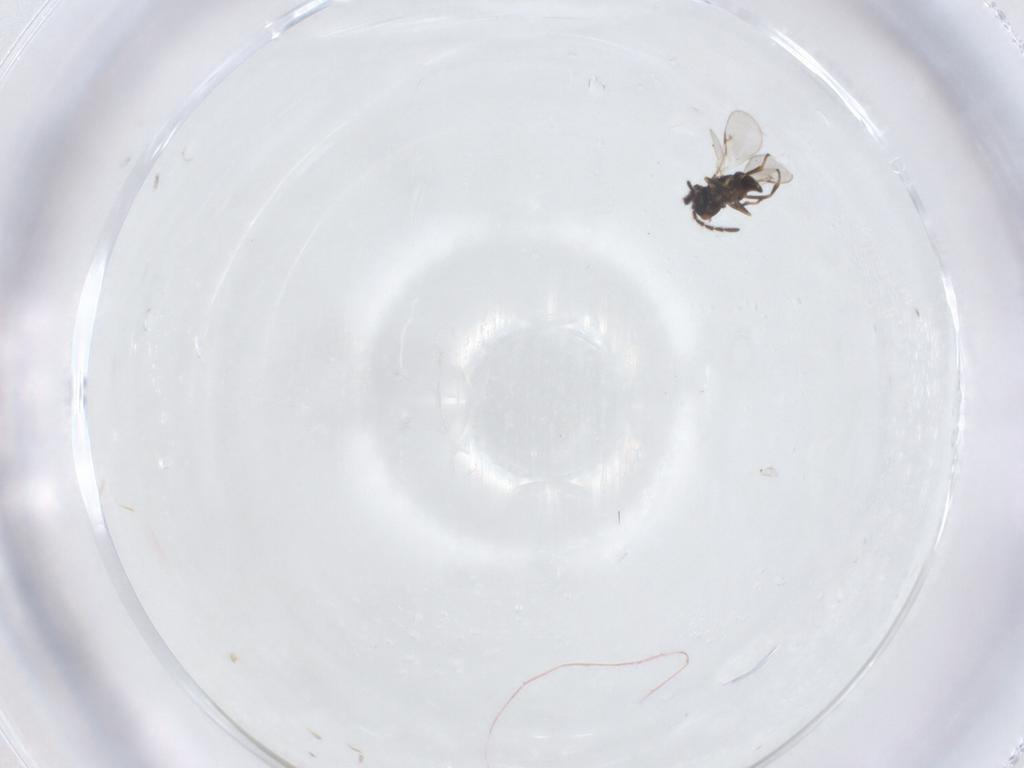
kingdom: Animalia
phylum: Arthropoda
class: Insecta
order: Hymenoptera
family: Encyrtidae
